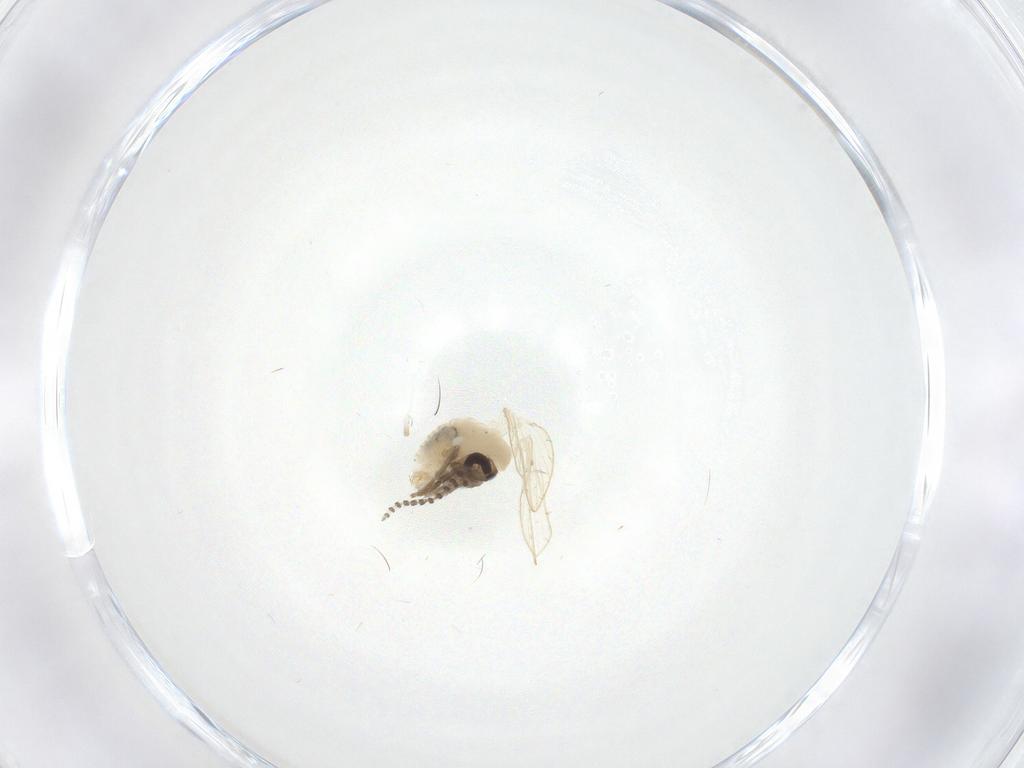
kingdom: Animalia
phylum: Arthropoda
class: Insecta
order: Diptera
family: Psychodidae
